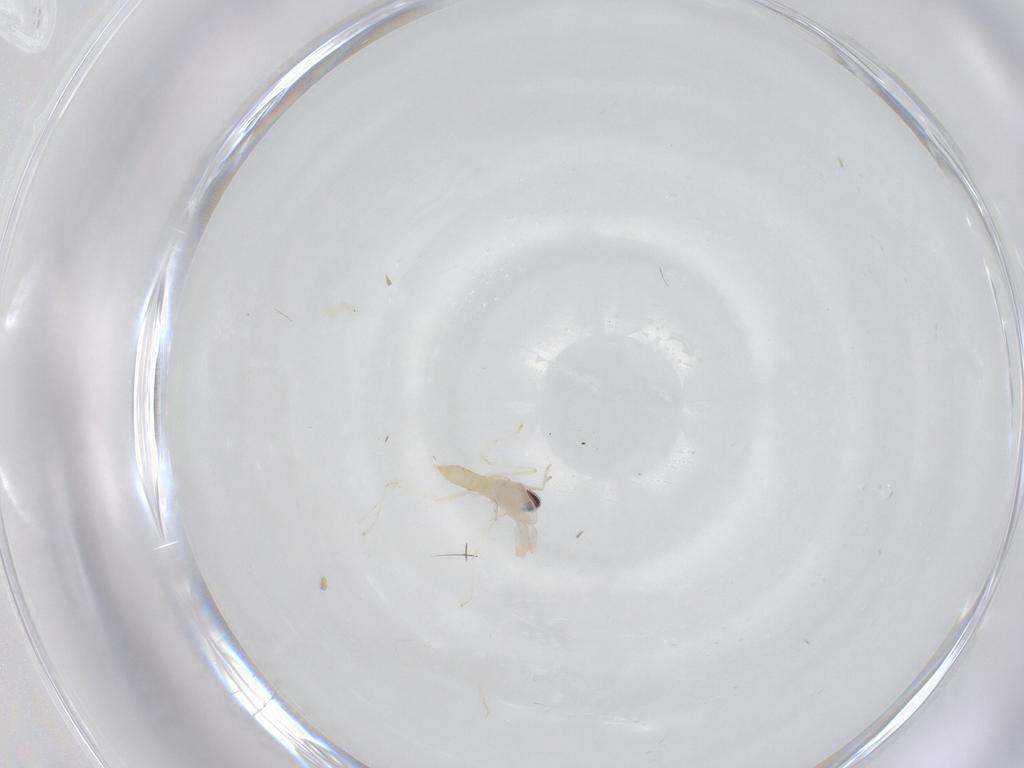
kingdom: Animalia
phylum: Arthropoda
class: Insecta
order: Diptera
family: Cecidomyiidae
